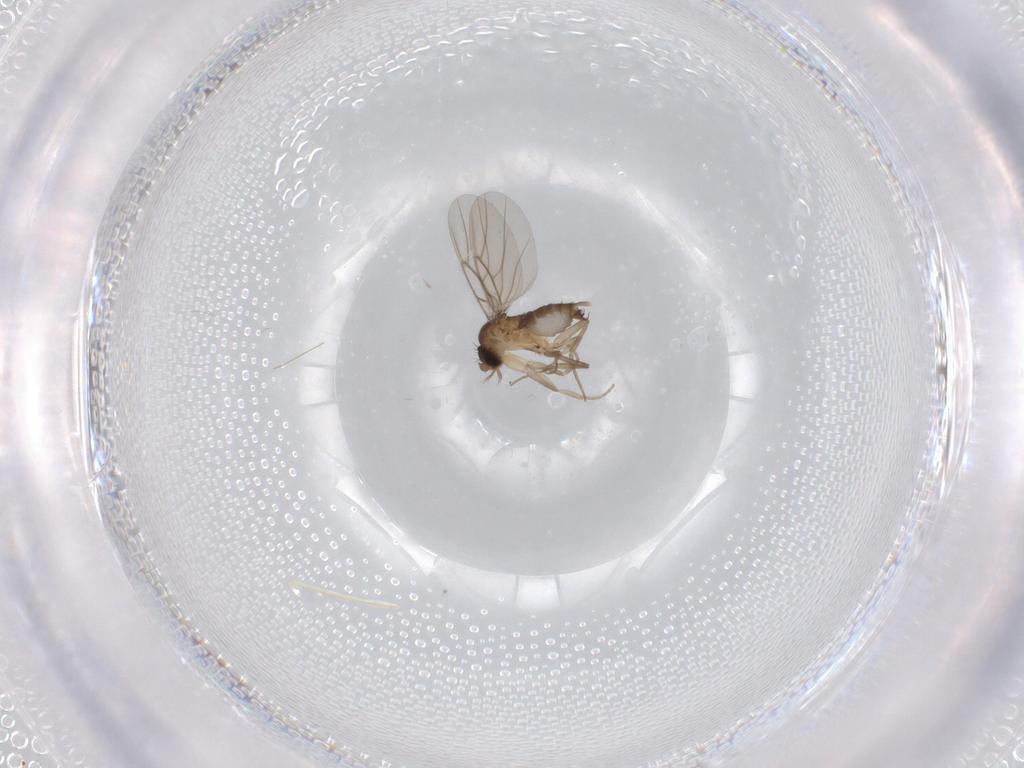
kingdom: Animalia
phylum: Arthropoda
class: Insecta
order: Diptera
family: Phoridae
